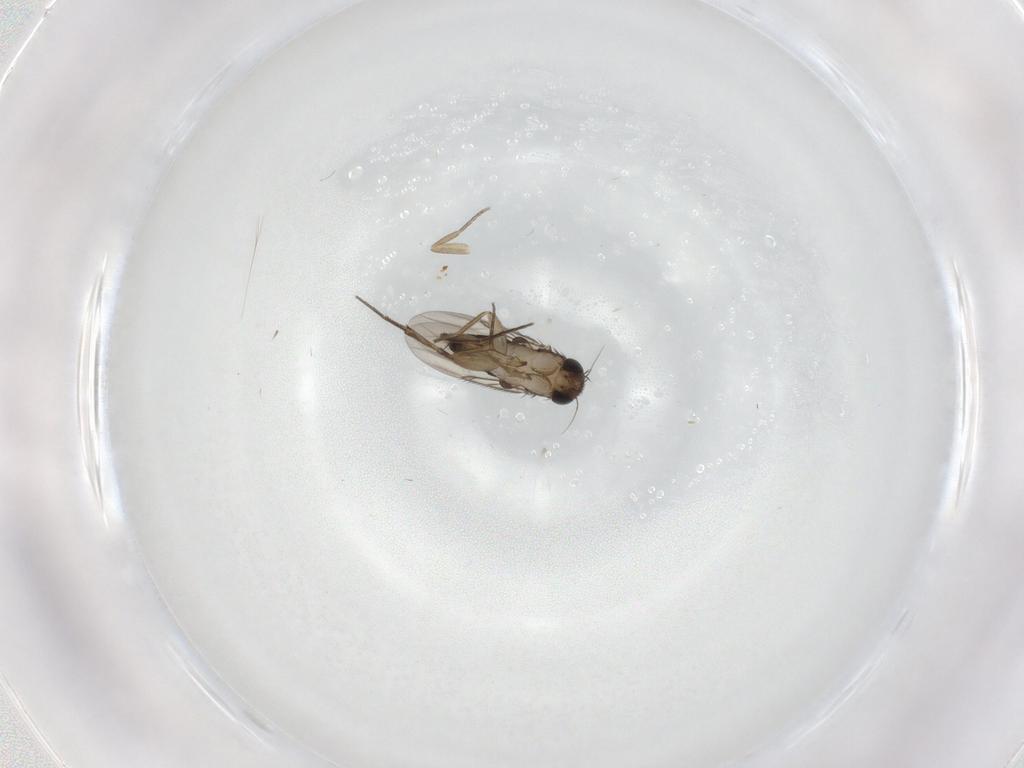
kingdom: Animalia
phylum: Arthropoda
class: Insecta
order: Diptera
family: Phoridae
